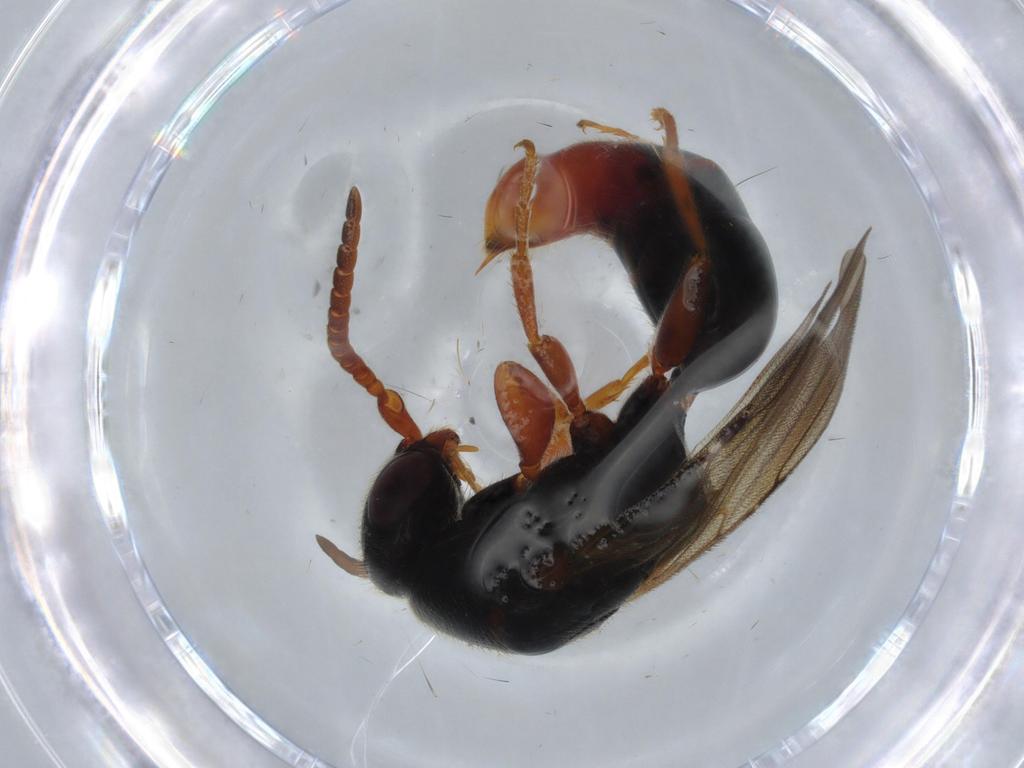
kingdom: Animalia
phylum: Arthropoda
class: Insecta
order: Hymenoptera
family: Bethylidae
